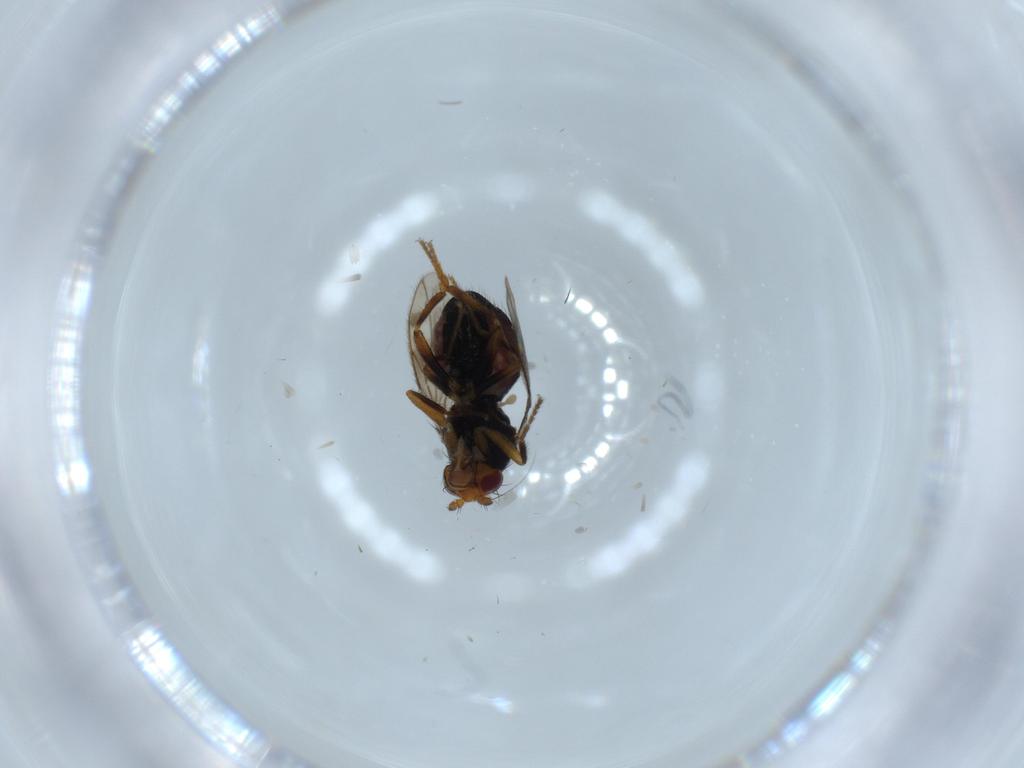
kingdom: Animalia
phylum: Arthropoda
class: Insecta
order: Diptera
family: Sphaeroceridae
